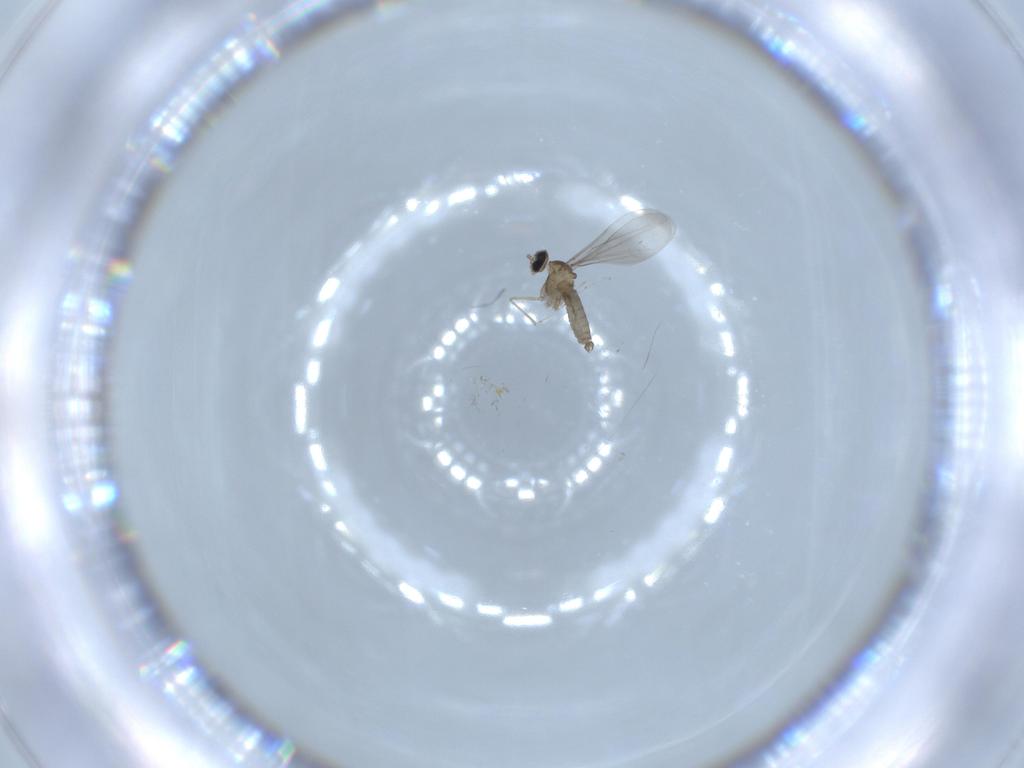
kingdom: Animalia
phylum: Arthropoda
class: Insecta
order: Diptera
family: Cecidomyiidae
